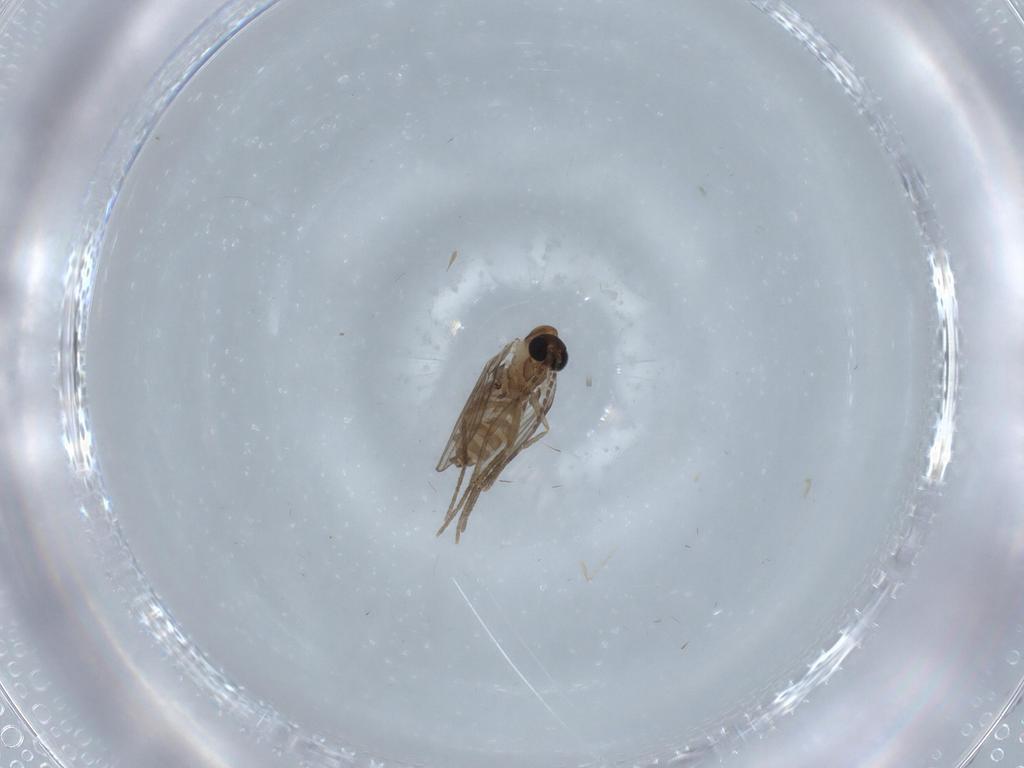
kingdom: Animalia
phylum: Arthropoda
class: Insecta
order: Diptera
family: Psychodidae
